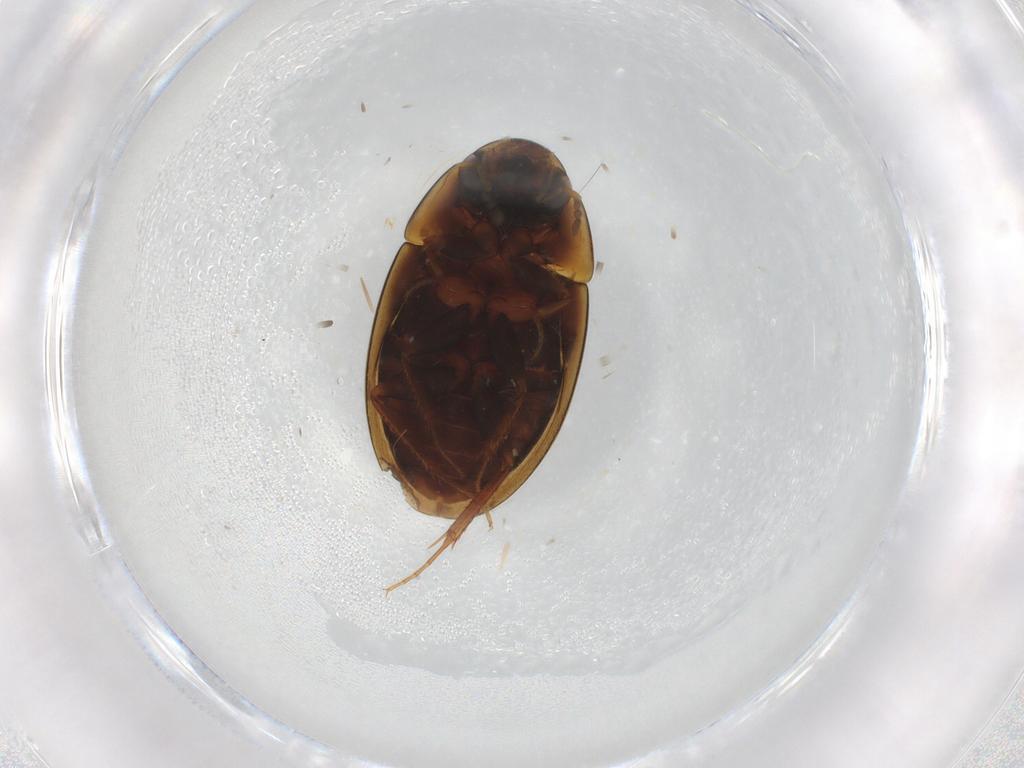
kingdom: Animalia
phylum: Arthropoda
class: Insecta
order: Coleoptera
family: Hydrophilidae
